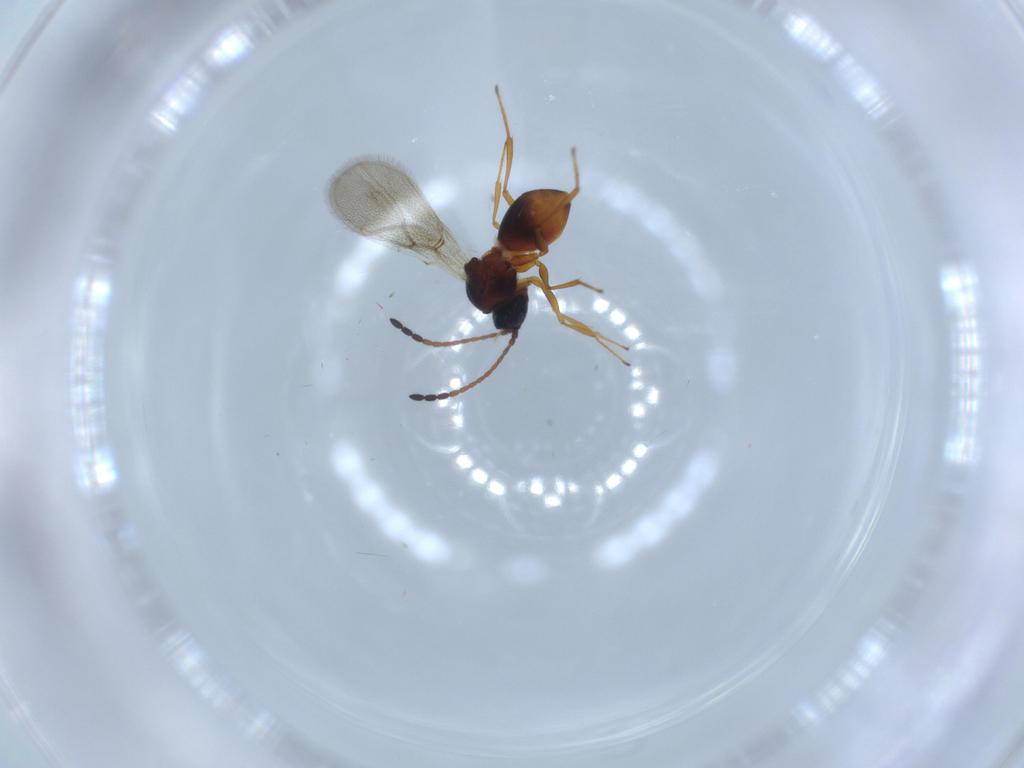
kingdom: Animalia
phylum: Arthropoda
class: Insecta
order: Hymenoptera
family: Figitidae
